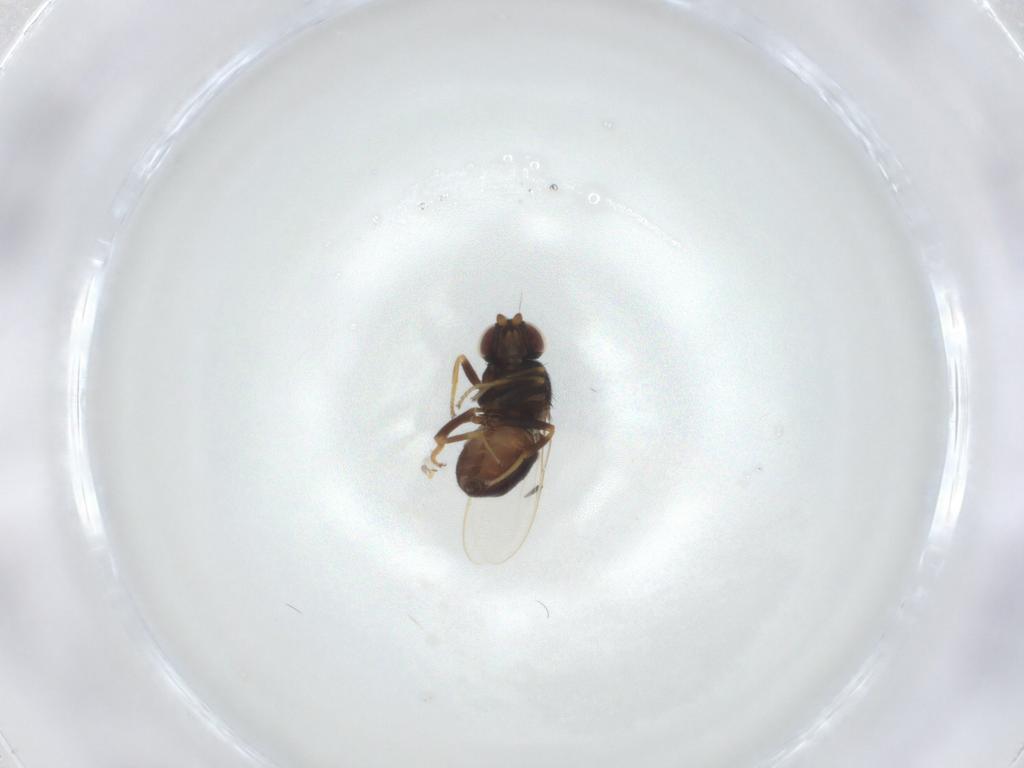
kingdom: Animalia
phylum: Arthropoda
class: Insecta
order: Diptera
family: Chloropidae
